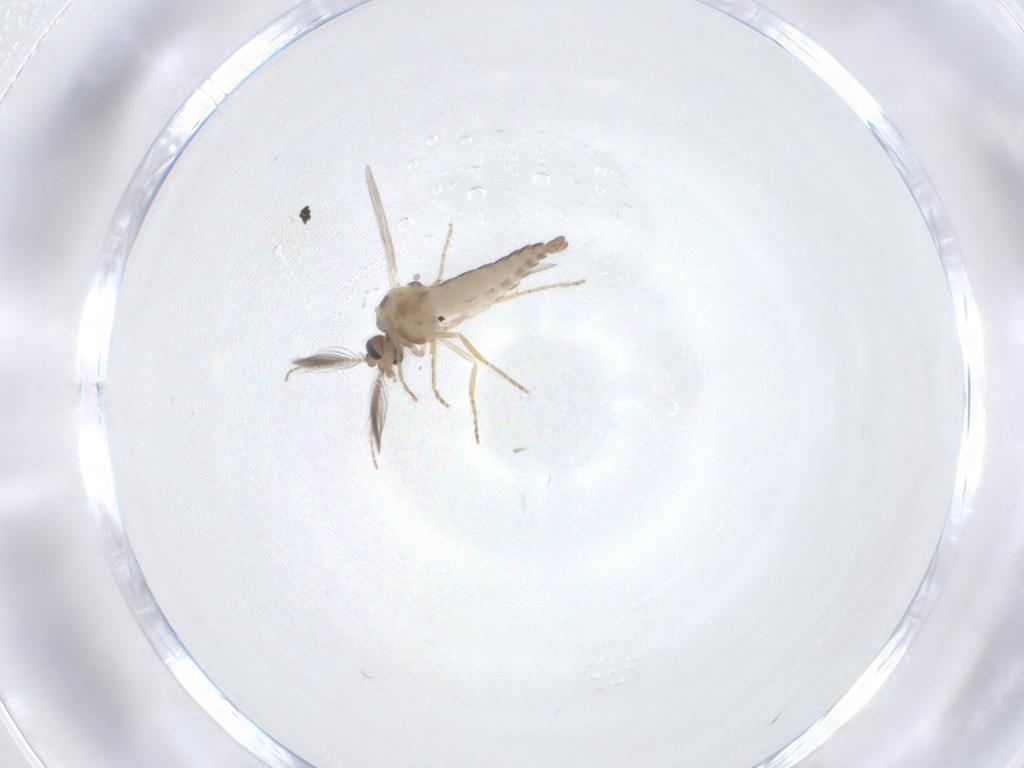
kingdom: Animalia
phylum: Arthropoda
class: Insecta
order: Diptera
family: Ceratopogonidae
